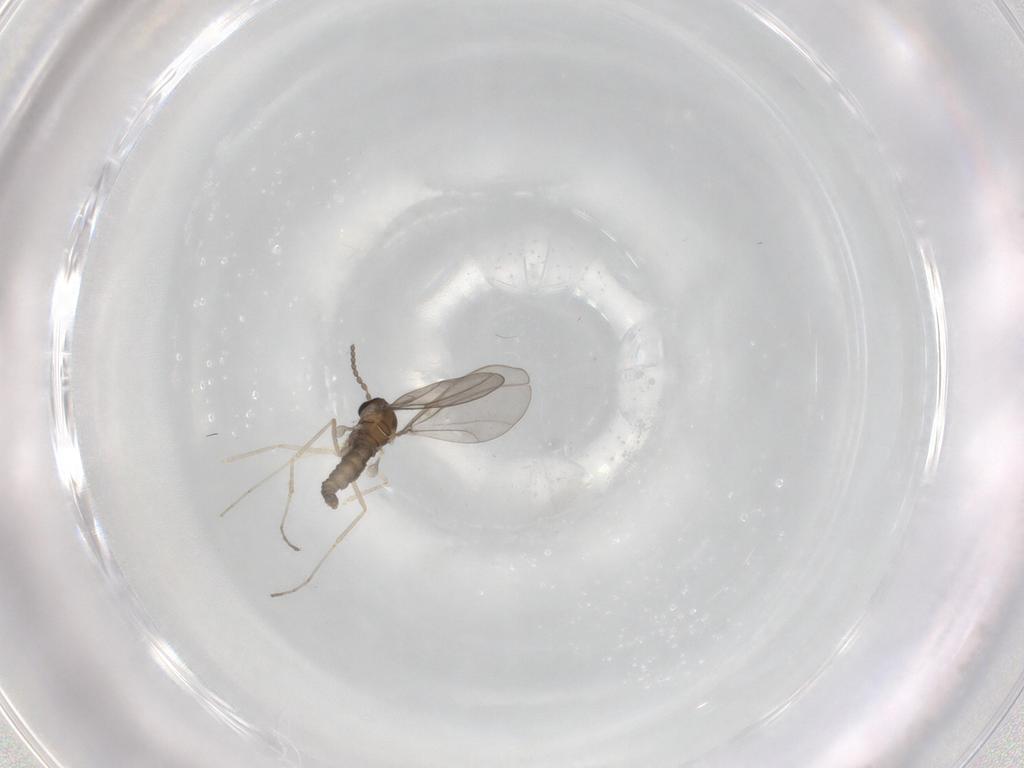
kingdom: Animalia
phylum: Arthropoda
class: Insecta
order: Diptera
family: Cecidomyiidae
